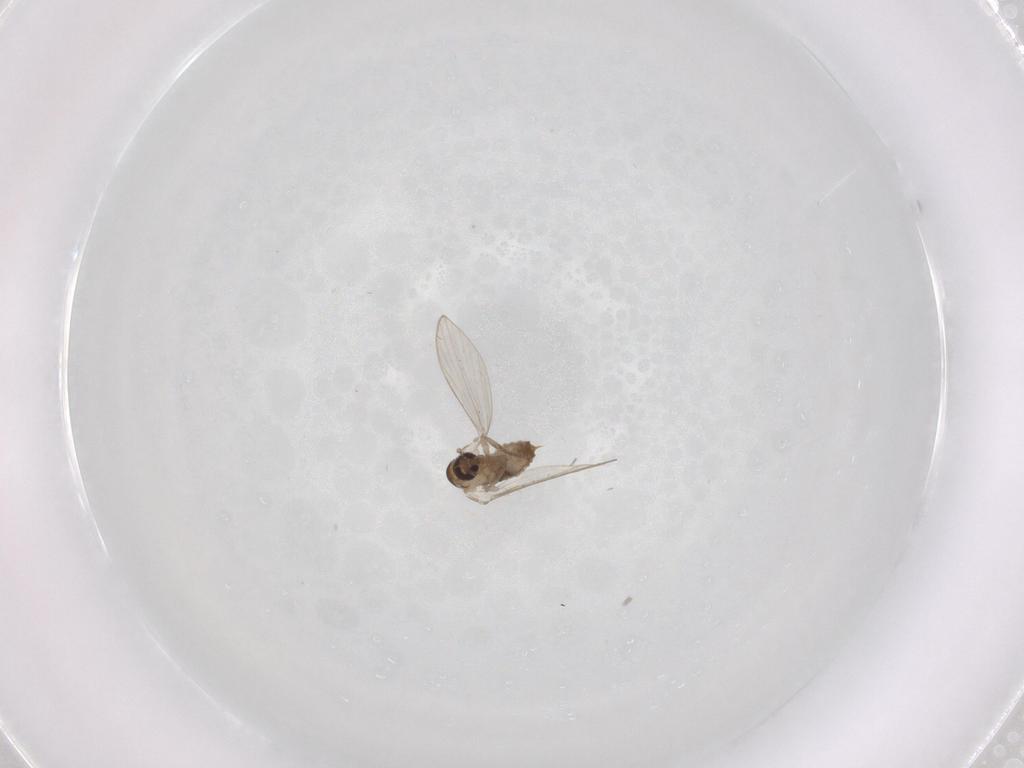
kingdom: Animalia
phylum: Arthropoda
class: Insecta
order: Diptera
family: Psychodidae
